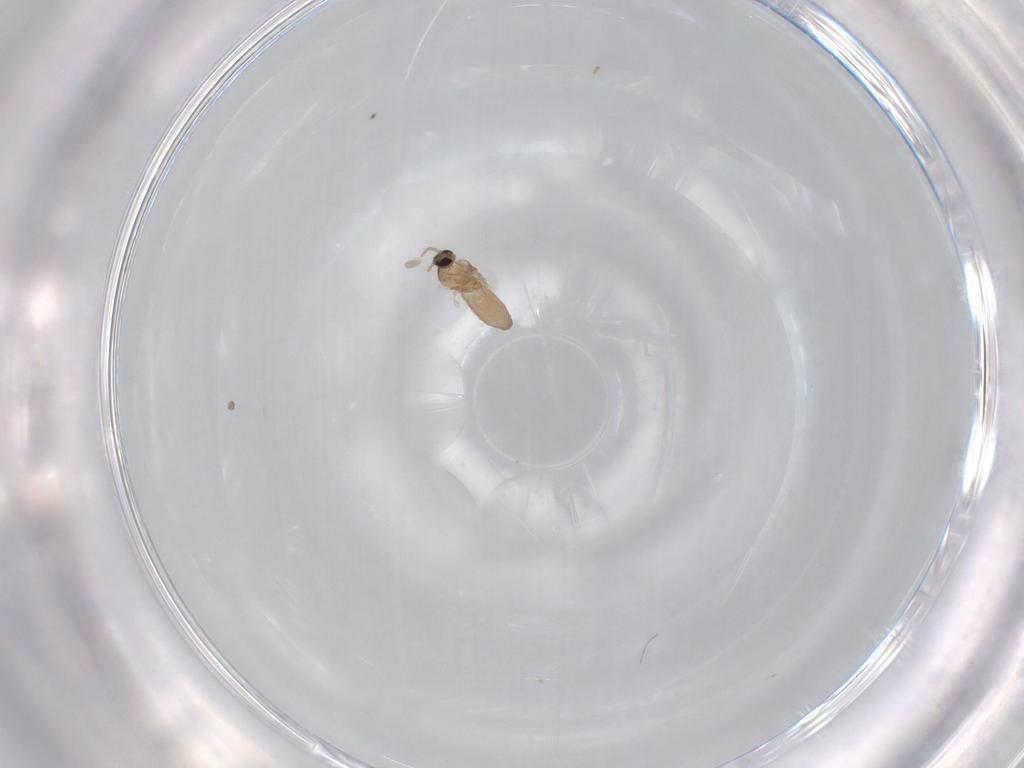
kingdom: Animalia
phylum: Arthropoda
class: Insecta
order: Diptera
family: Cecidomyiidae
